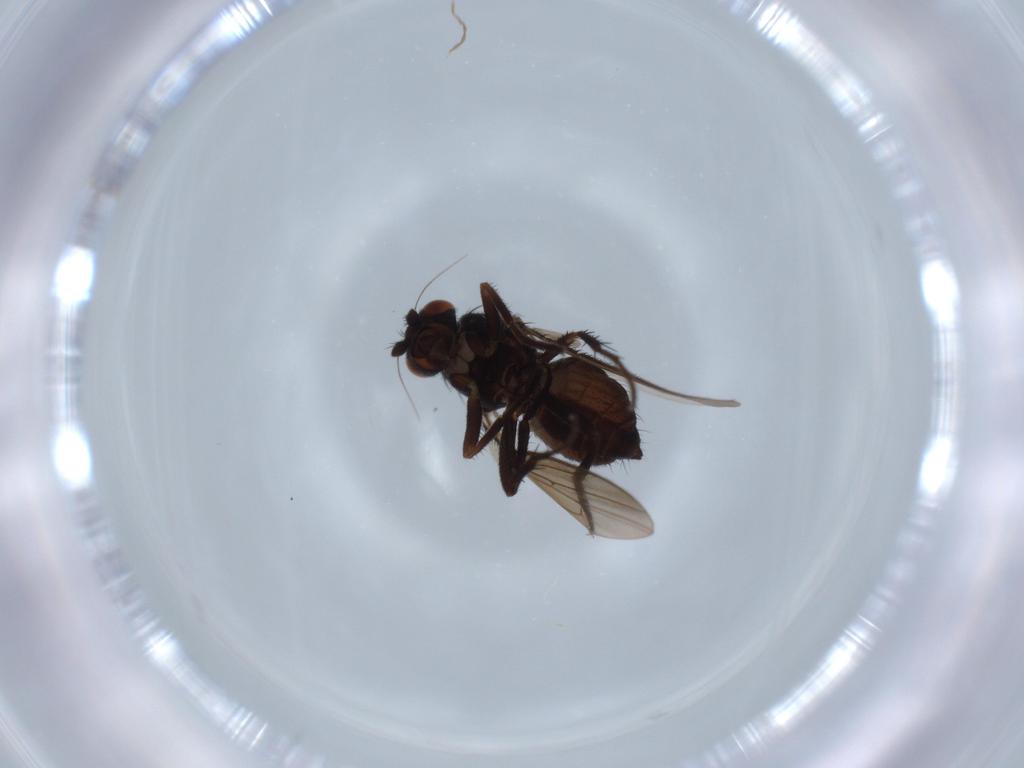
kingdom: Animalia
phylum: Arthropoda
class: Insecta
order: Diptera
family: Sphaeroceridae
